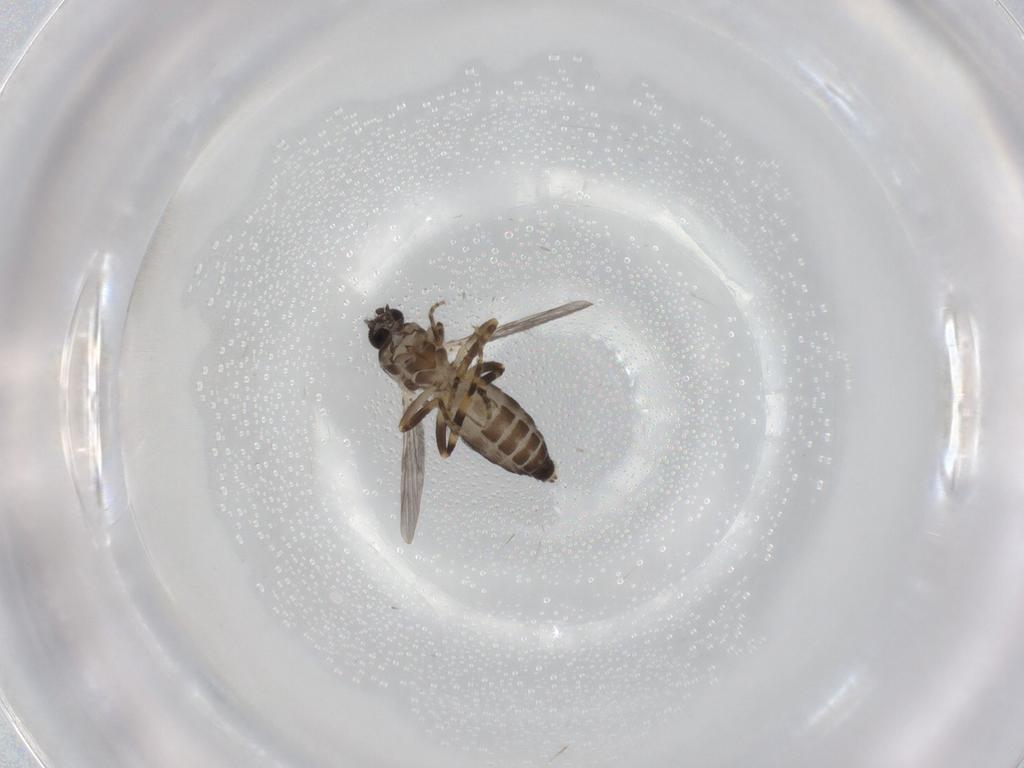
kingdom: Animalia
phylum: Arthropoda
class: Insecta
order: Diptera
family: Ceratopogonidae
